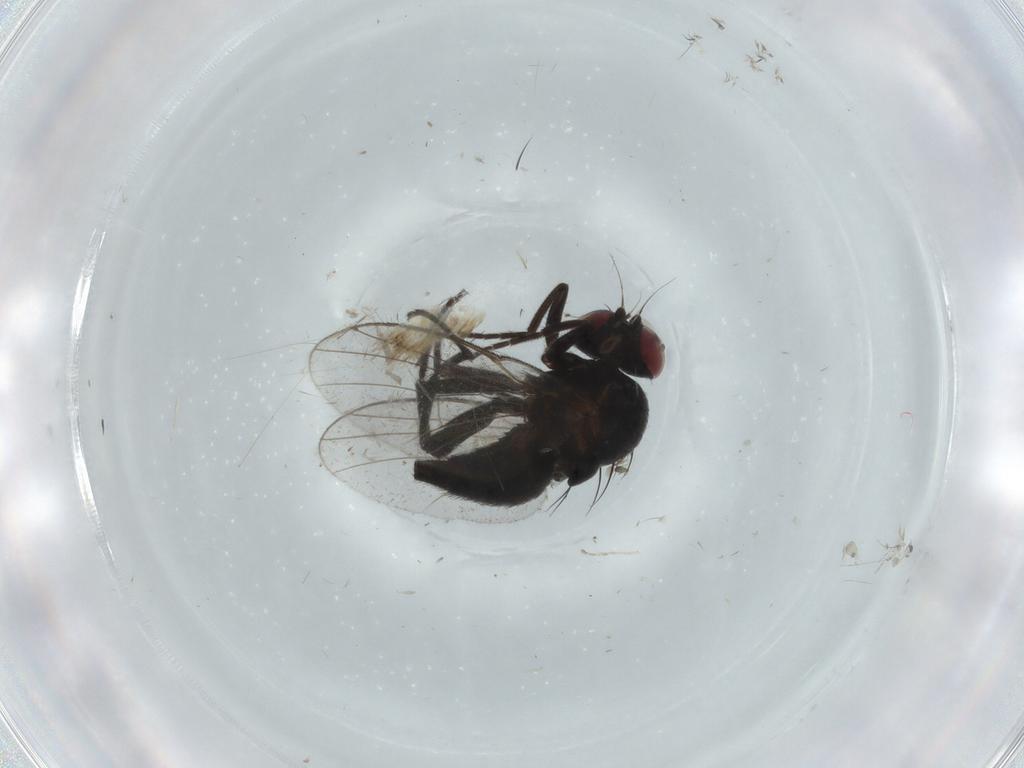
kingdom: Animalia
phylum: Arthropoda
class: Insecta
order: Diptera
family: Agromyzidae
